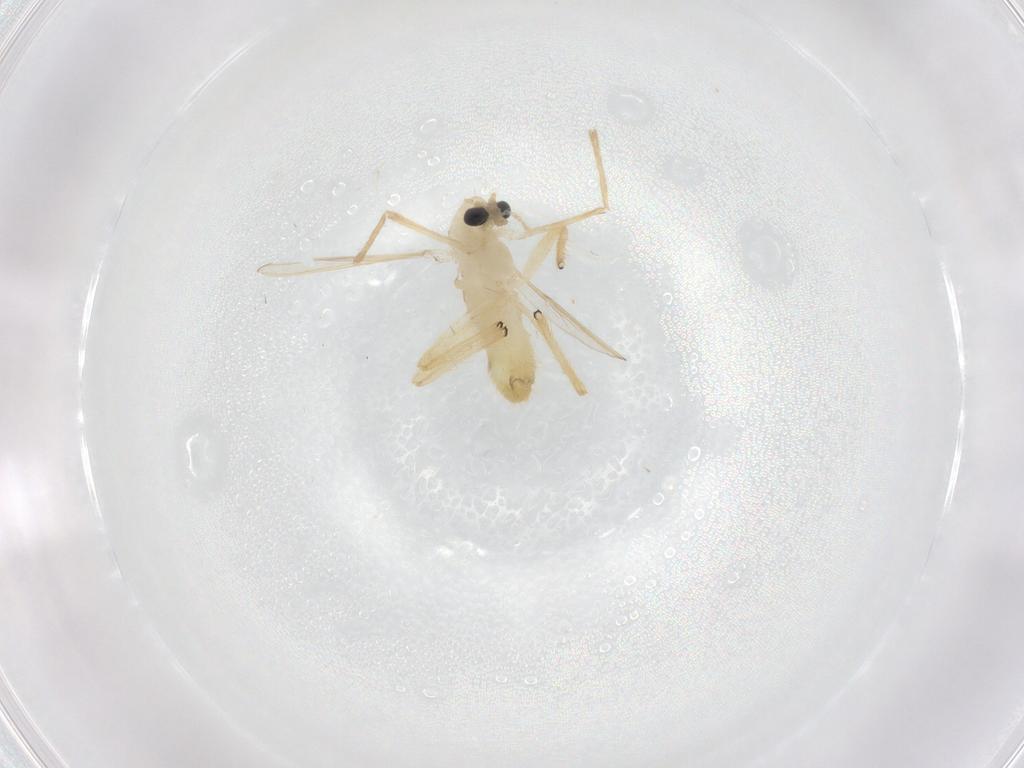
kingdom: Animalia
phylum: Arthropoda
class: Insecta
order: Diptera
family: Chironomidae
